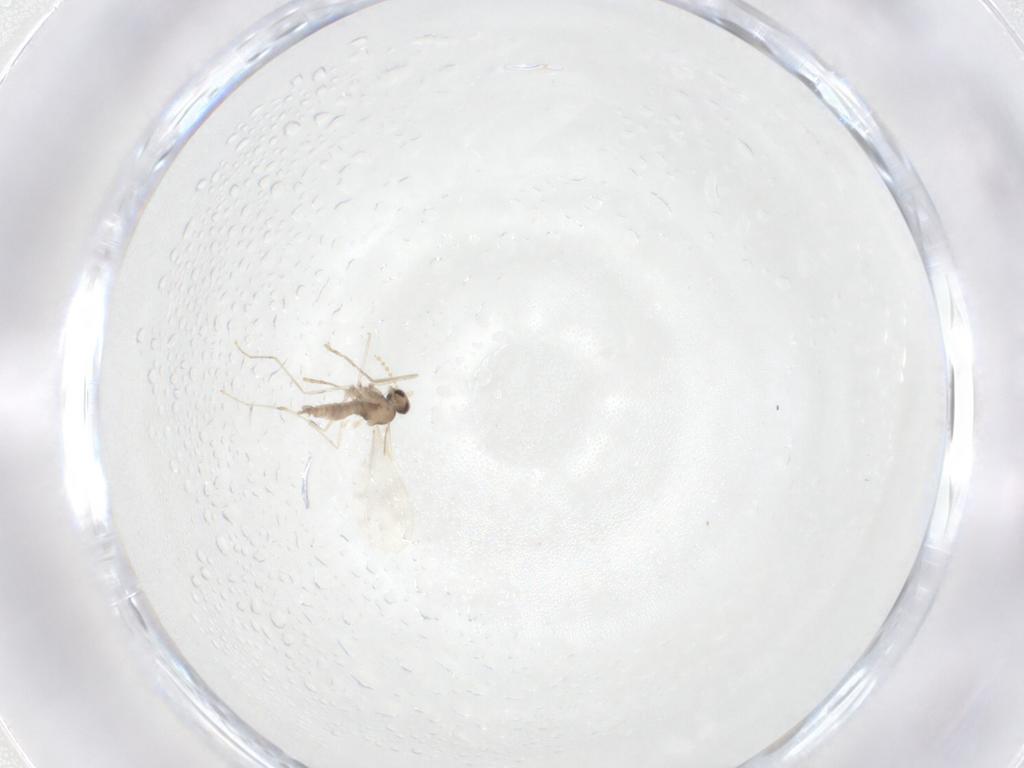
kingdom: Animalia
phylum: Arthropoda
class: Insecta
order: Diptera
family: Cecidomyiidae
